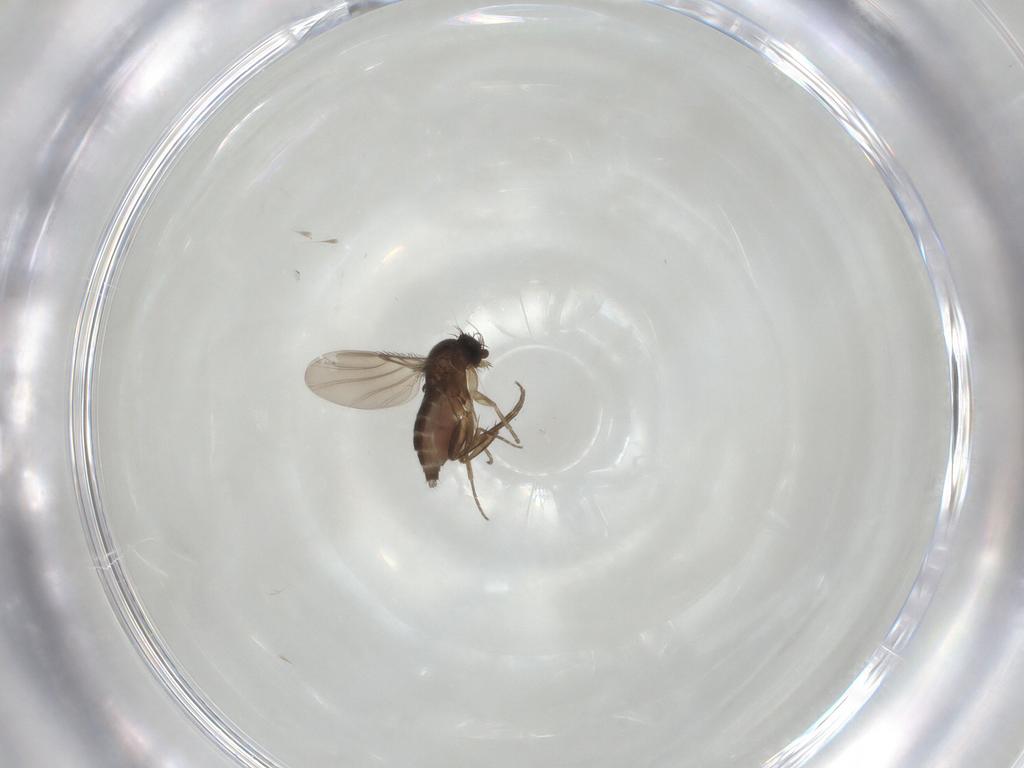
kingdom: Animalia
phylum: Arthropoda
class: Insecta
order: Diptera
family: Phoridae
